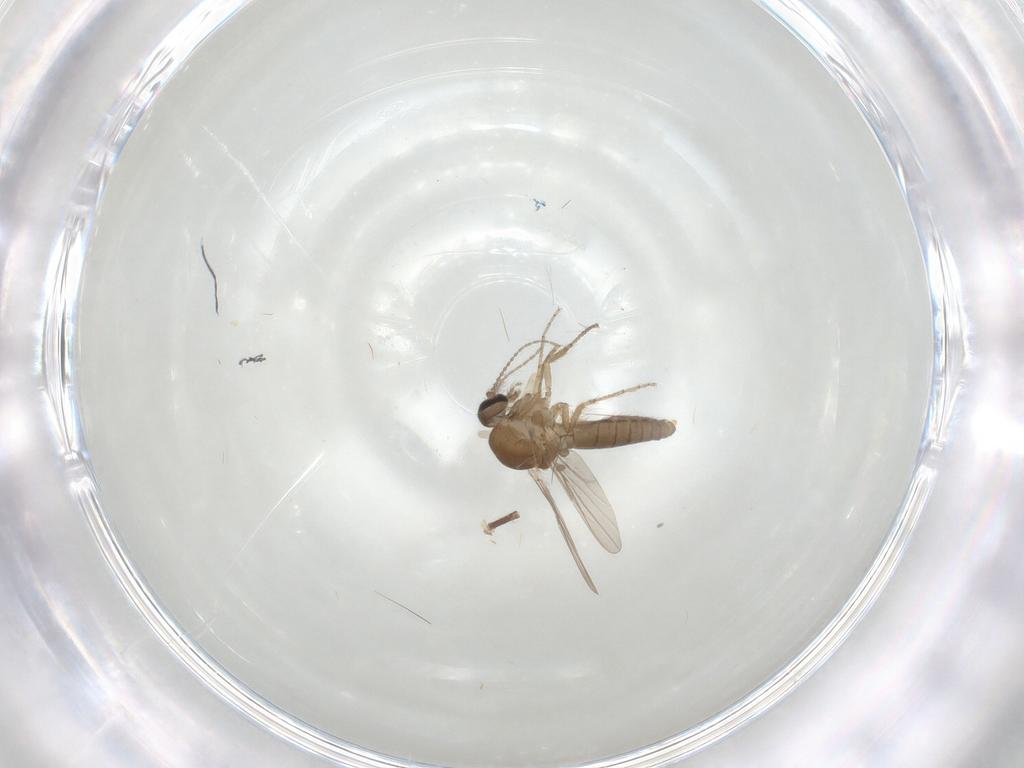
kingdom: Animalia
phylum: Arthropoda
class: Insecta
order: Diptera
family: Ceratopogonidae
